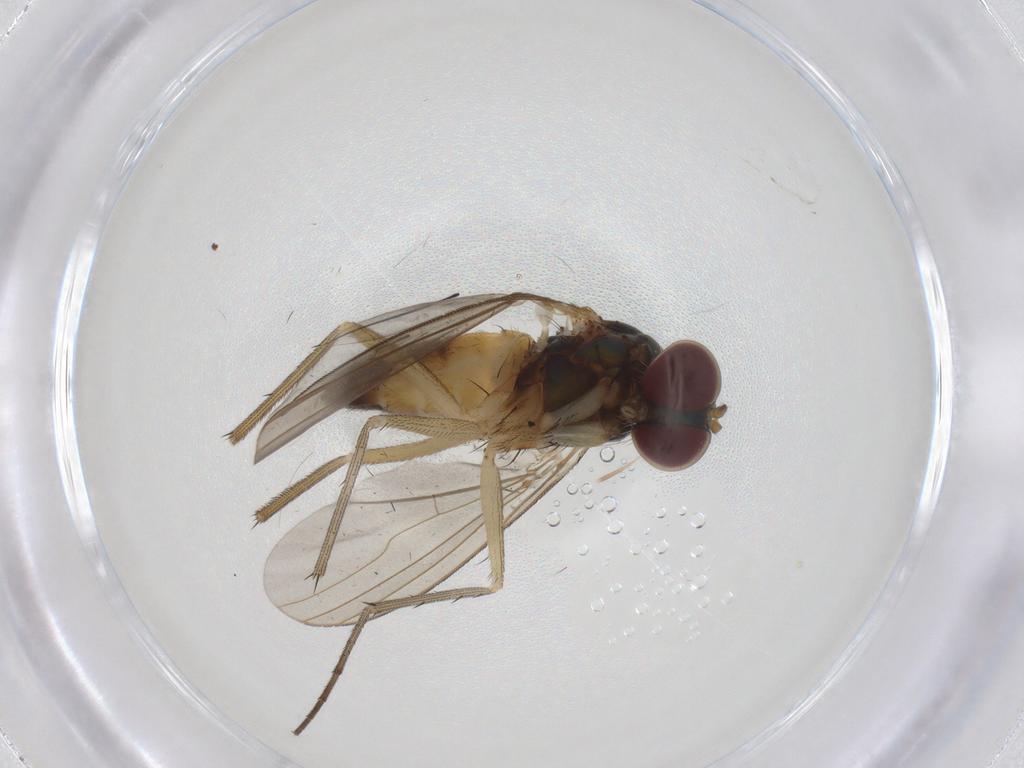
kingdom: Animalia
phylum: Arthropoda
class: Insecta
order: Diptera
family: Dolichopodidae
